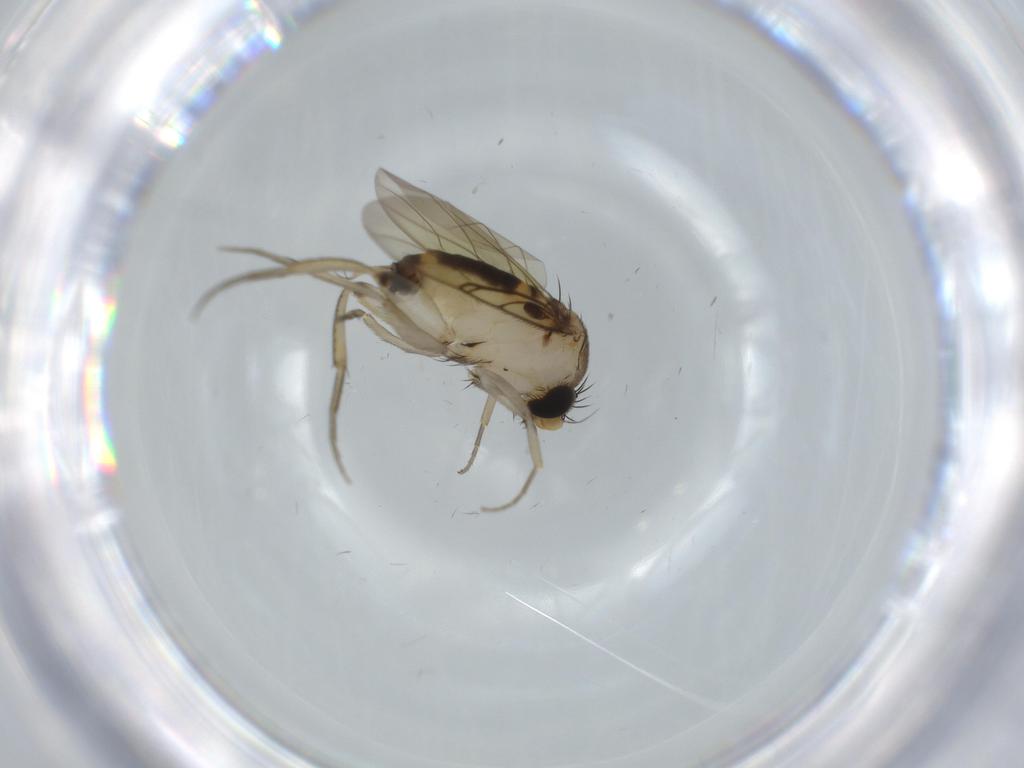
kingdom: Animalia
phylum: Arthropoda
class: Insecta
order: Diptera
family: Phoridae
